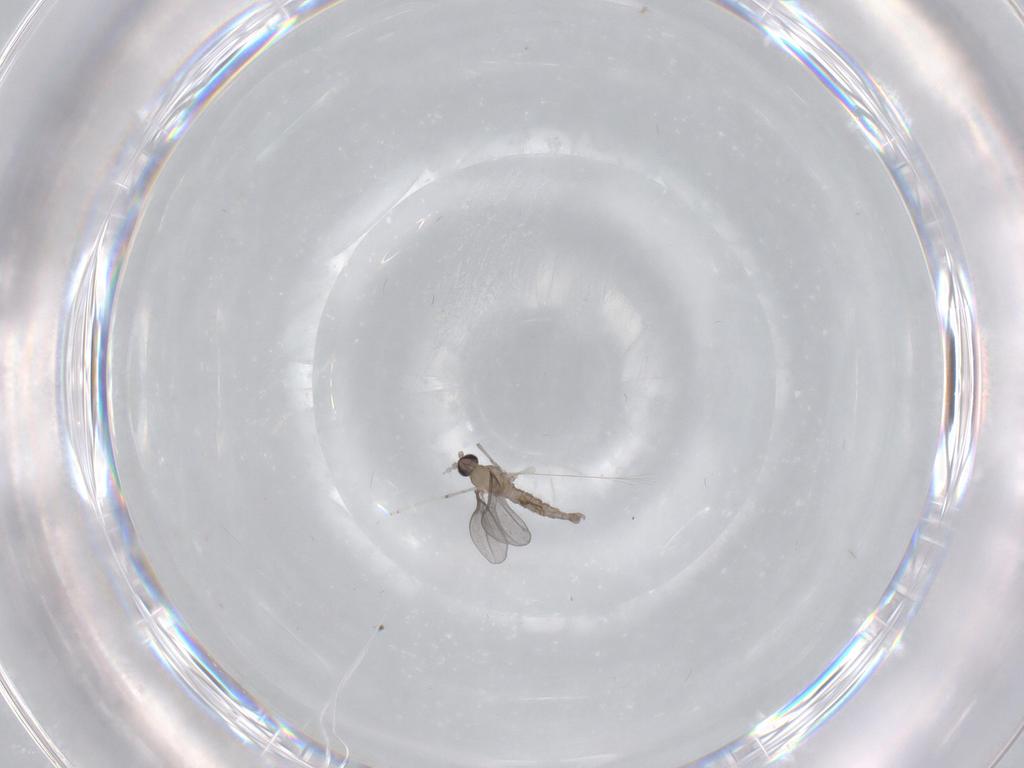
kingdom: Animalia
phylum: Arthropoda
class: Insecta
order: Diptera
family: Cecidomyiidae
